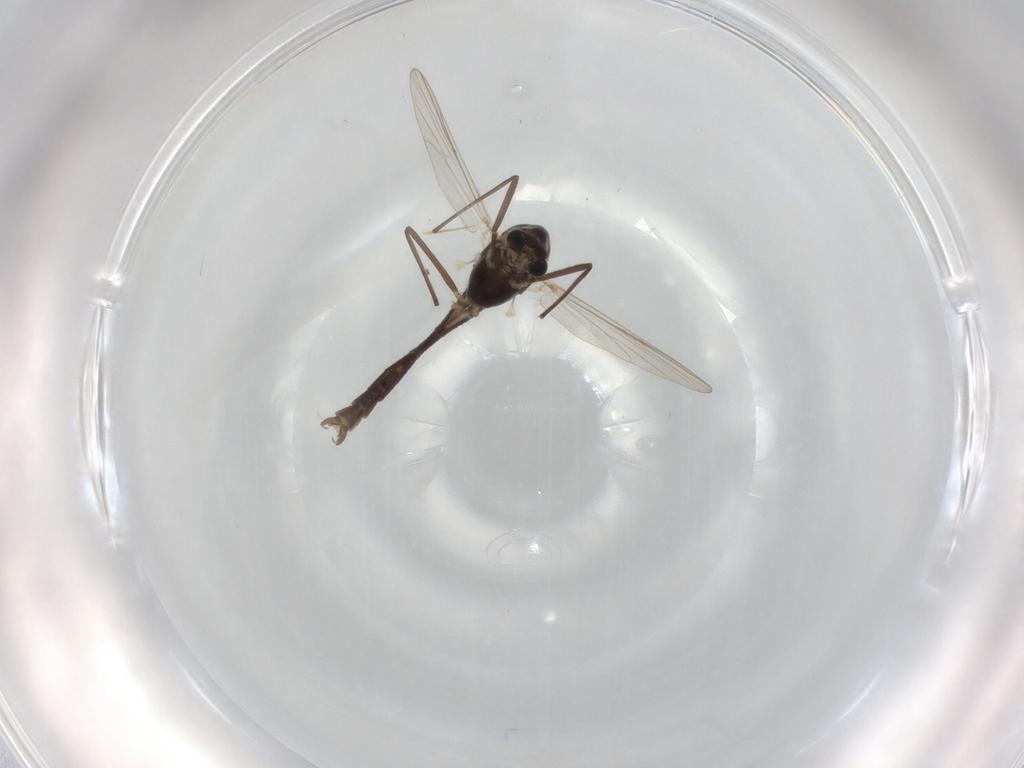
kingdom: Animalia
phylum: Arthropoda
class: Insecta
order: Diptera
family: Chironomidae
